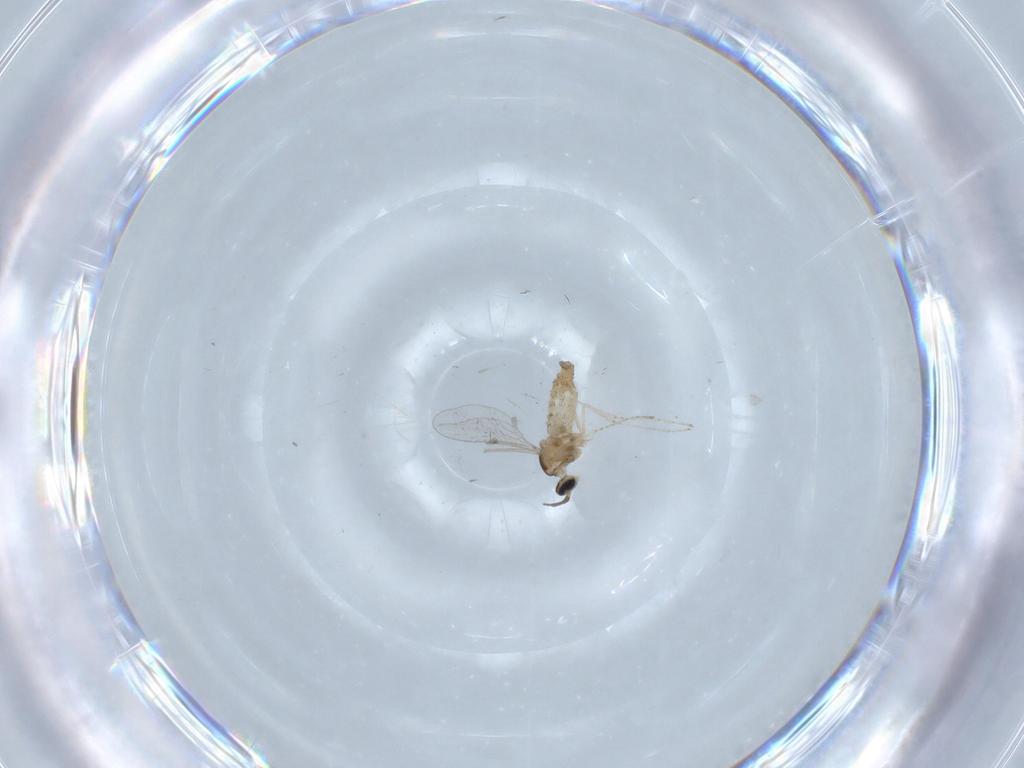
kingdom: Animalia
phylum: Arthropoda
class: Insecta
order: Diptera
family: Cecidomyiidae
